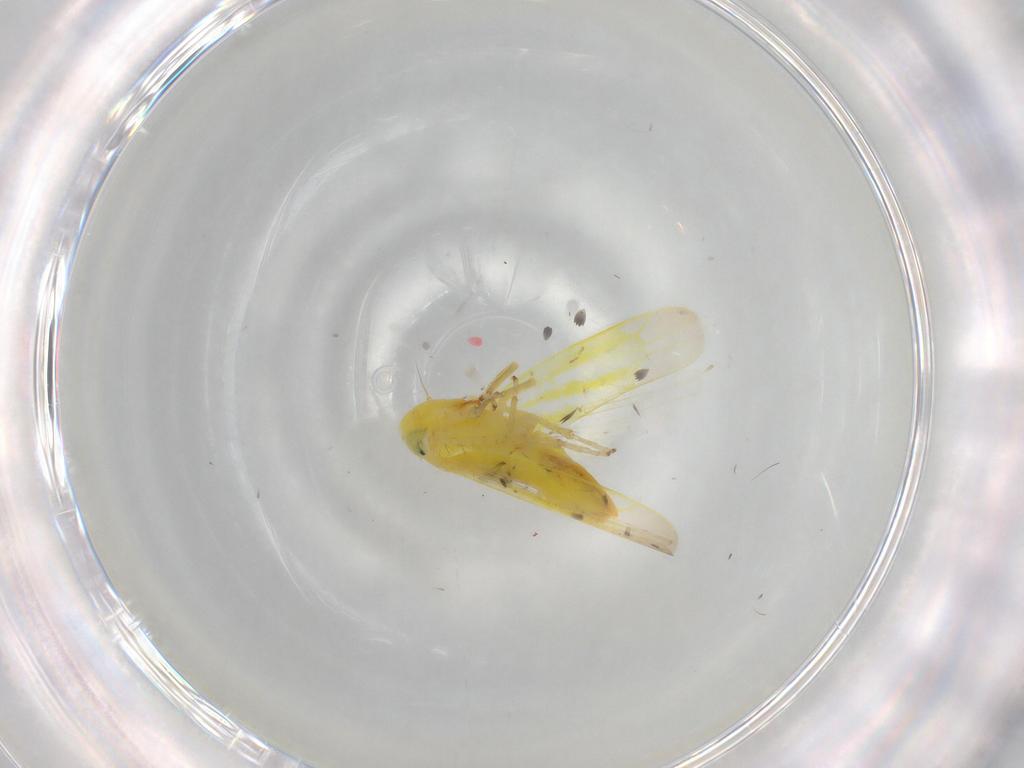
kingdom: Animalia
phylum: Arthropoda
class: Insecta
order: Hemiptera
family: Cicadellidae
